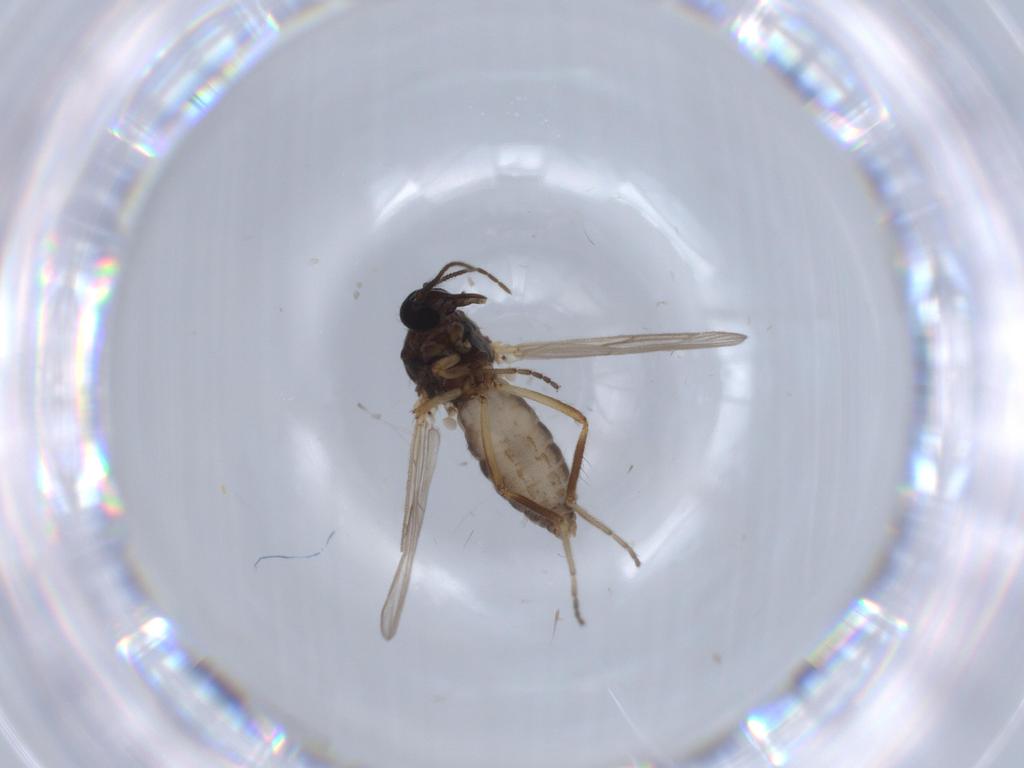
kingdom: Animalia
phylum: Arthropoda
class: Insecta
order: Diptera
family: Ceratopogonidae
